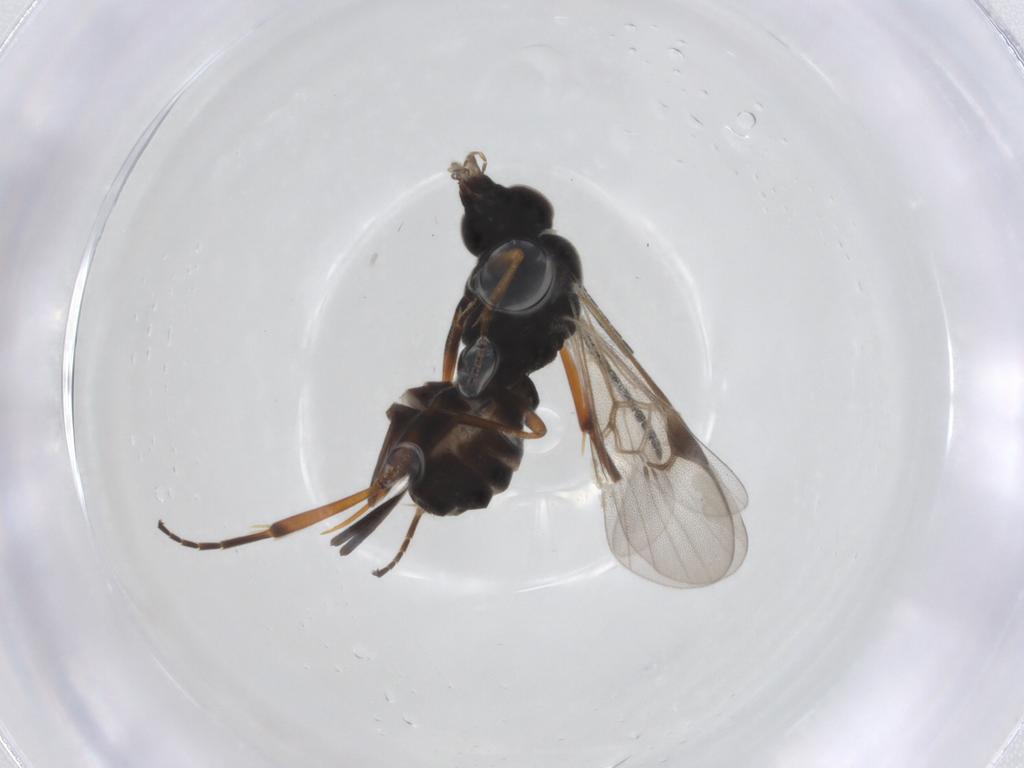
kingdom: Animalia
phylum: Arthropoda
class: Insecta
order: Hymenoptera
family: Braconidae
